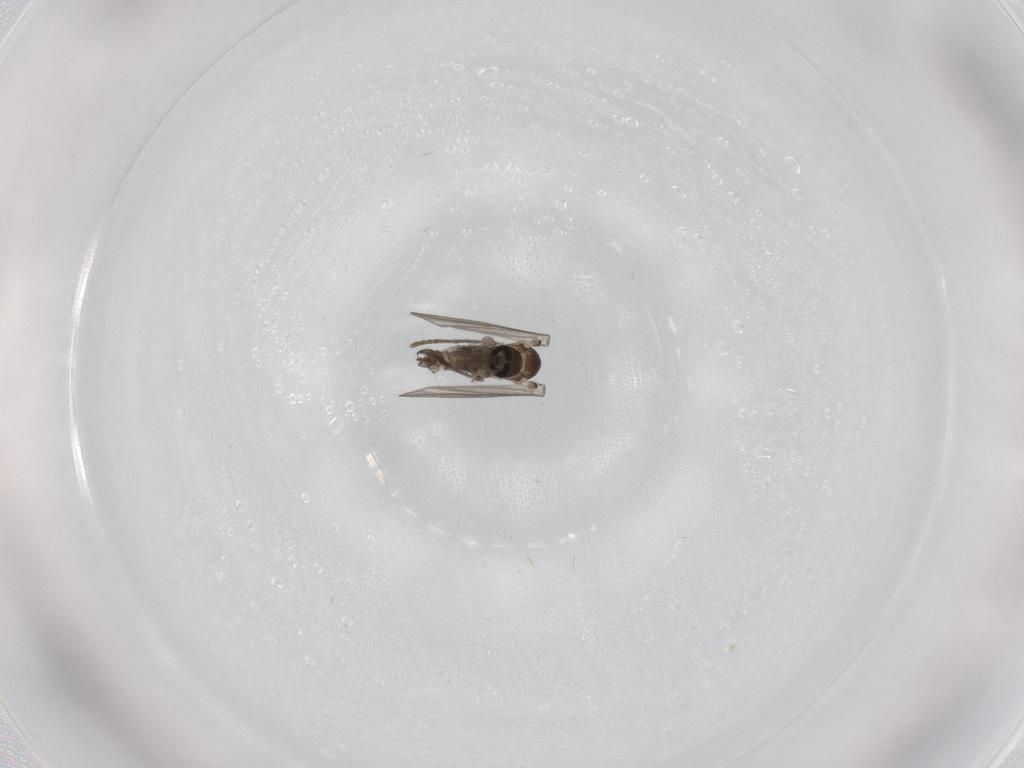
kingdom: Animalia
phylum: Arthropoda
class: Insecta
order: Diptera
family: Psychodidae
